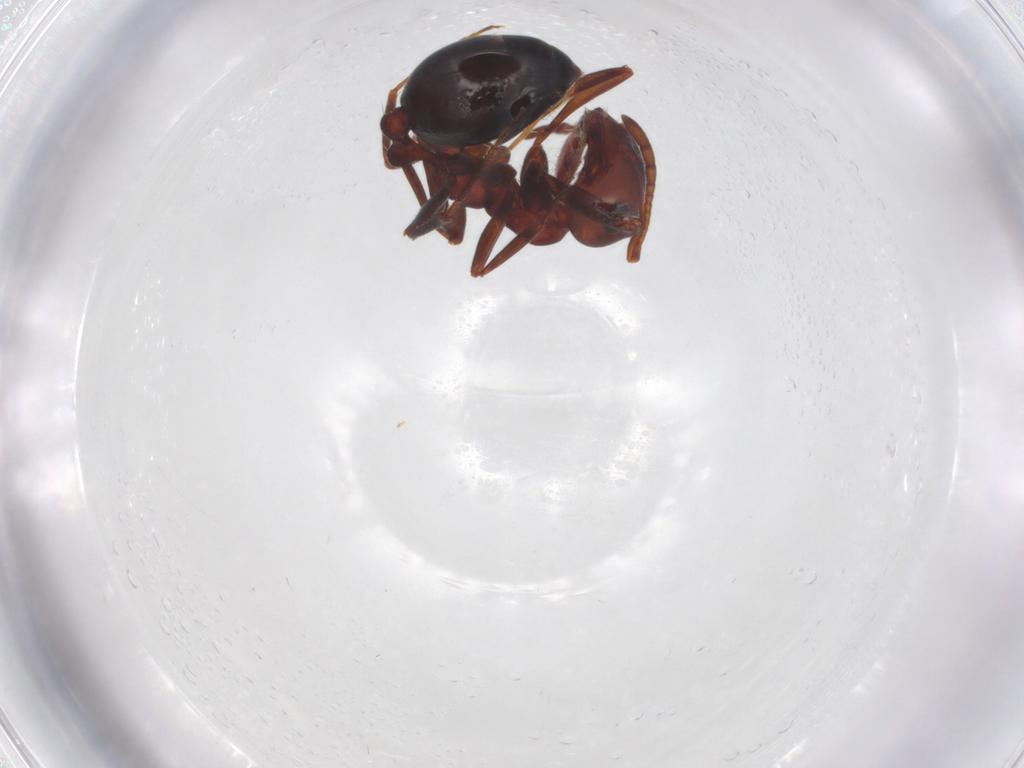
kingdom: Animalia
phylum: Arthropoda
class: Insecta
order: Hymenoptera
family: Formicidae
